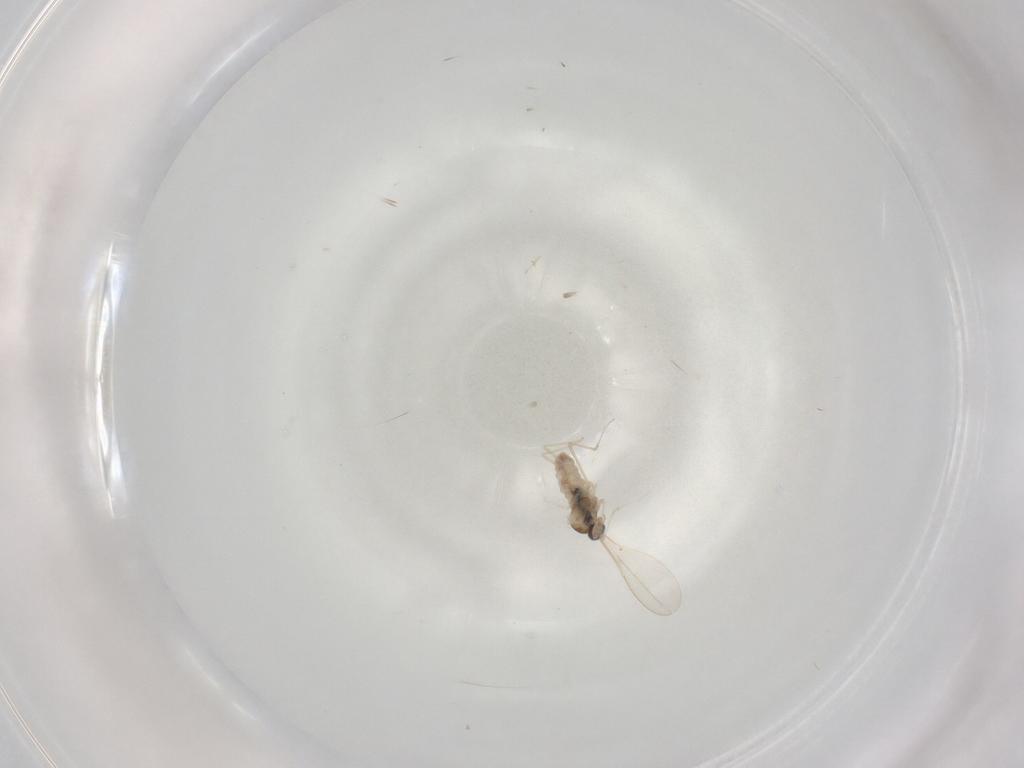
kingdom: Animalia
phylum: Arthropoda
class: Insecta
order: Diptera
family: Cecidomyiidae
